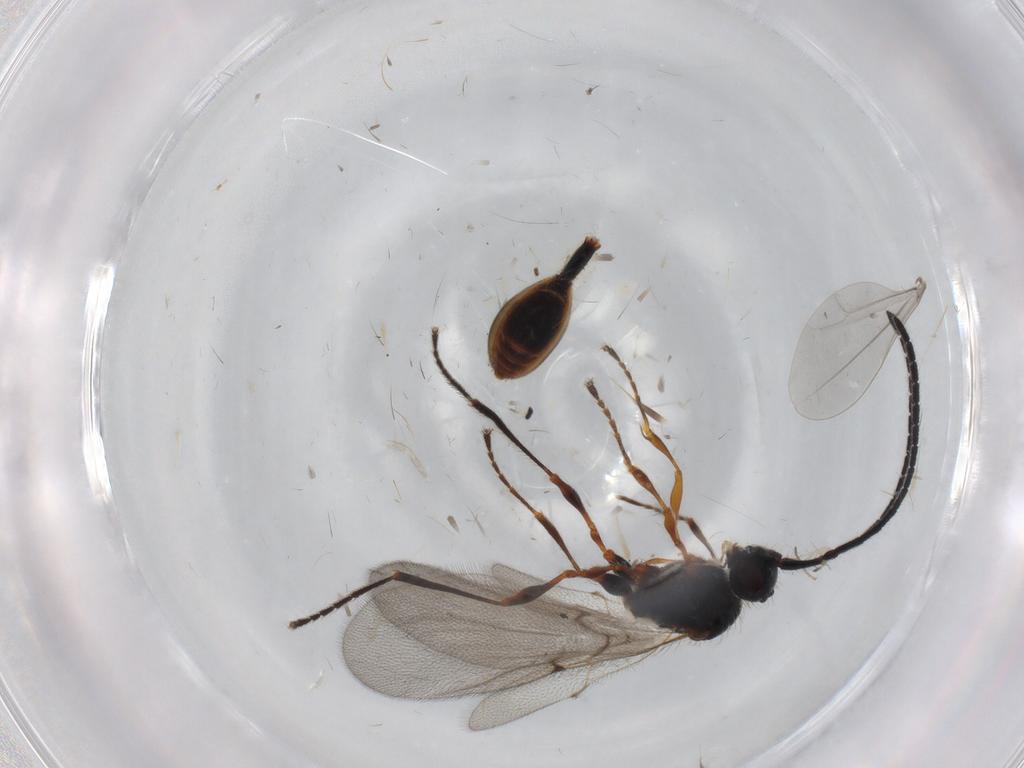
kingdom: Animalia
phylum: Arthropoda
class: Insecta
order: Hymenoptera
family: Diapriidae
